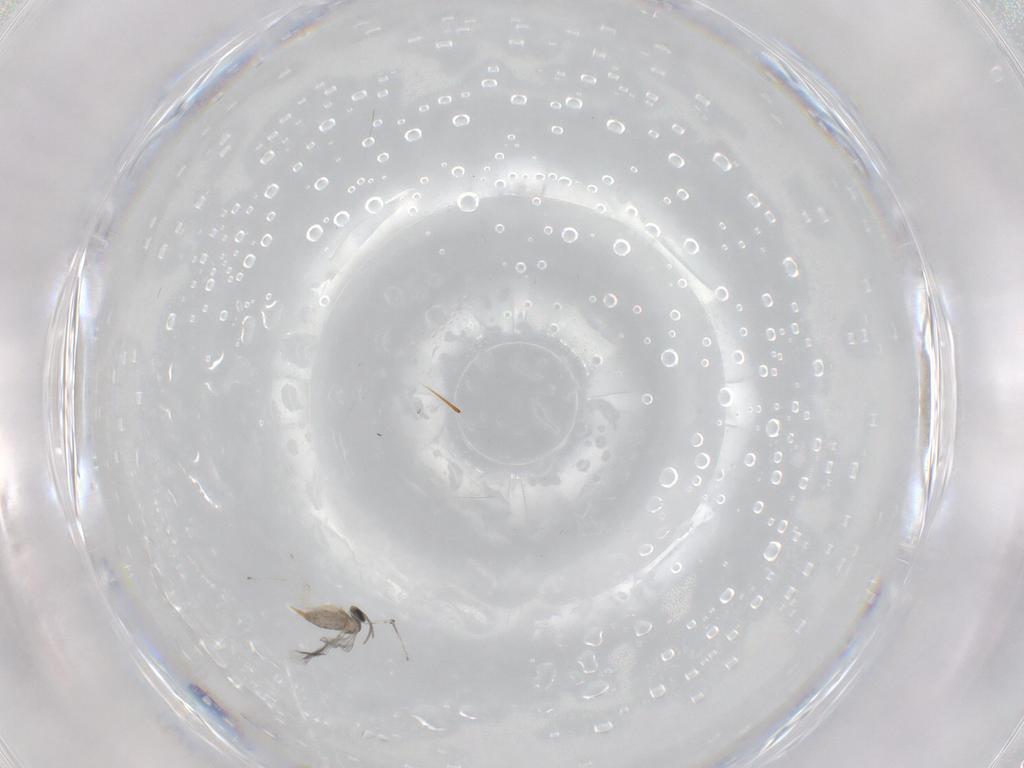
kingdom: Animalia
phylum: Arthropoda
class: Insecta
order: Diptera
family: Cecidomyiidae
